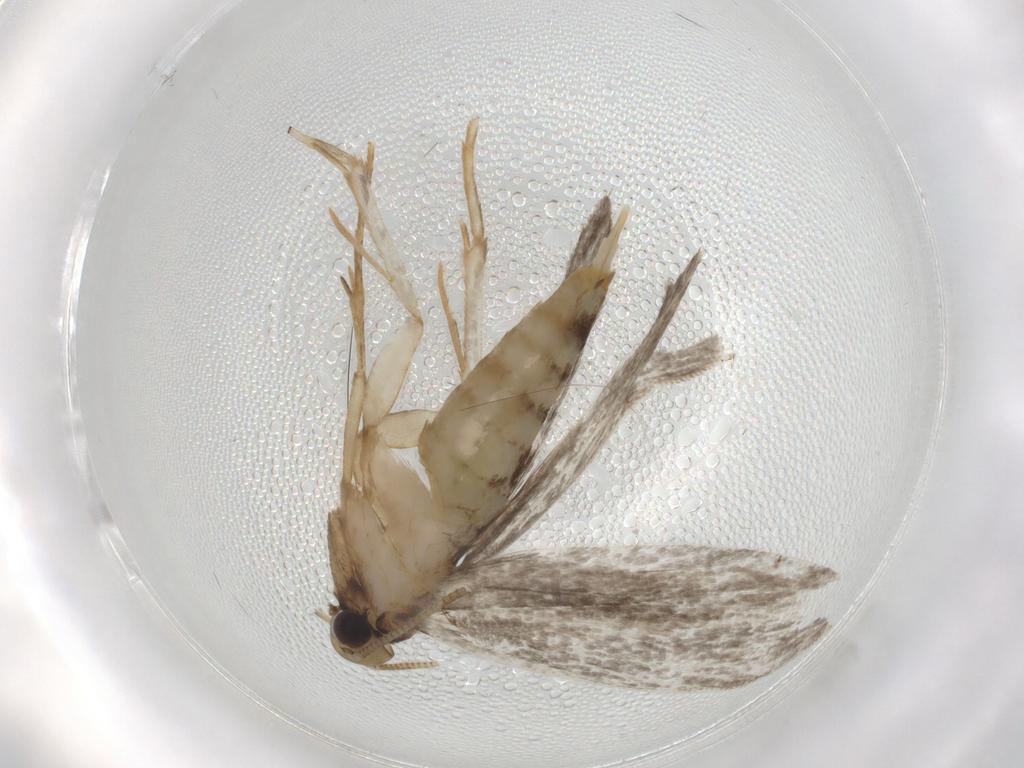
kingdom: Animalia
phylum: Arthropoda
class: Insecta
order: Lepidoptera
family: Tineidae
